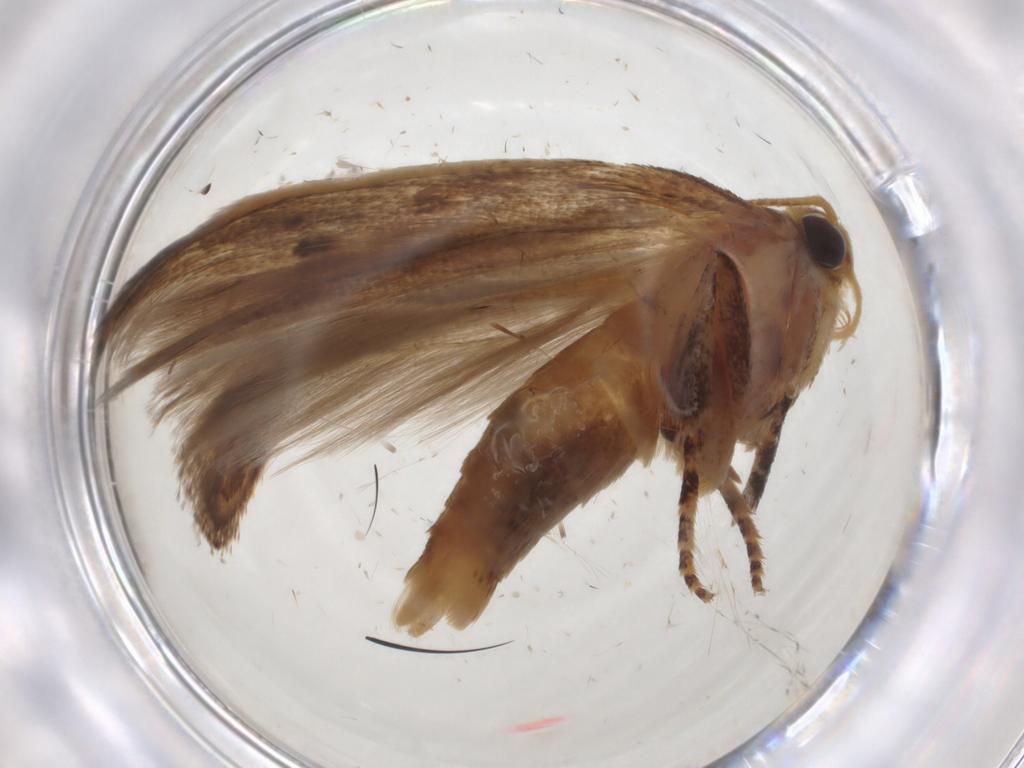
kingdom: Animalia
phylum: Arthropoda
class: Insecta
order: Lepidoptera
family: Gelechiidae
